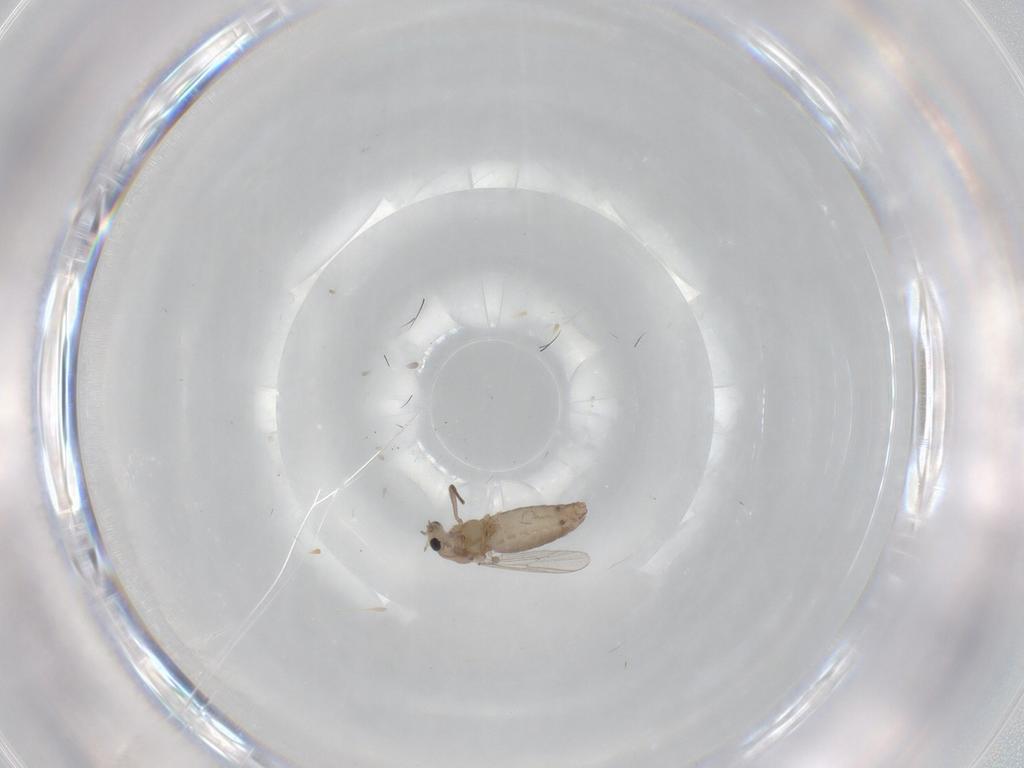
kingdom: Animalia
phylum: Arthropoda
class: Insecta
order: Diptera
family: Chironomidae
